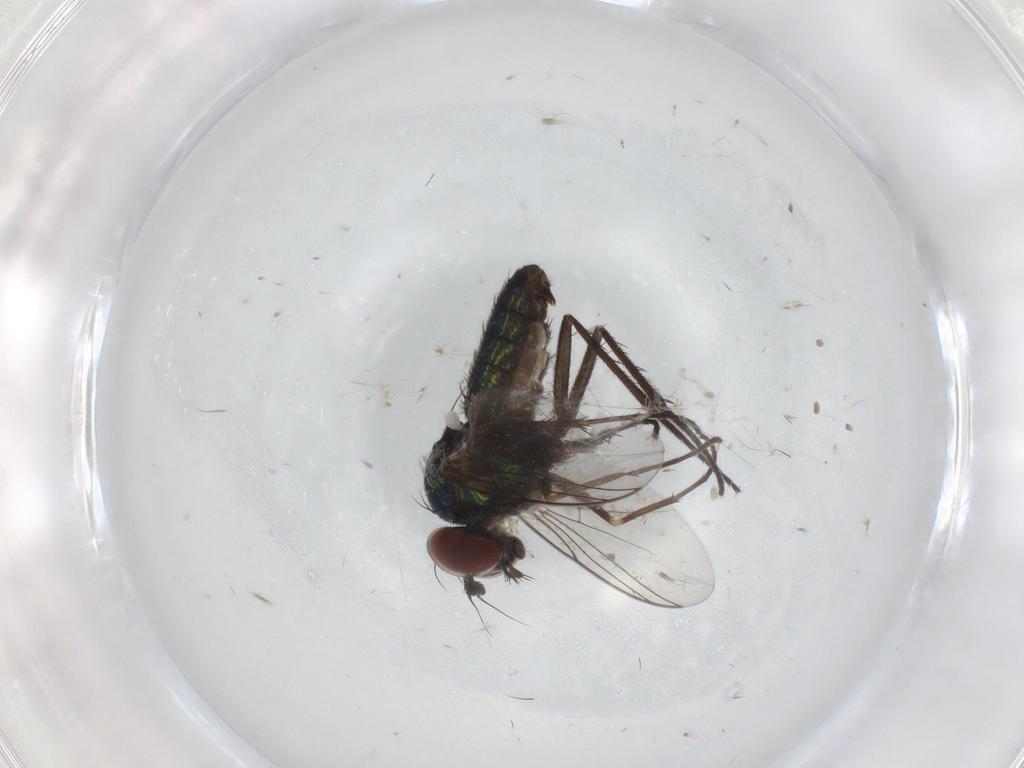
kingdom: Animalia
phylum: Arthropoda
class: Insecta
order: Diptera
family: Dolichopodidae
